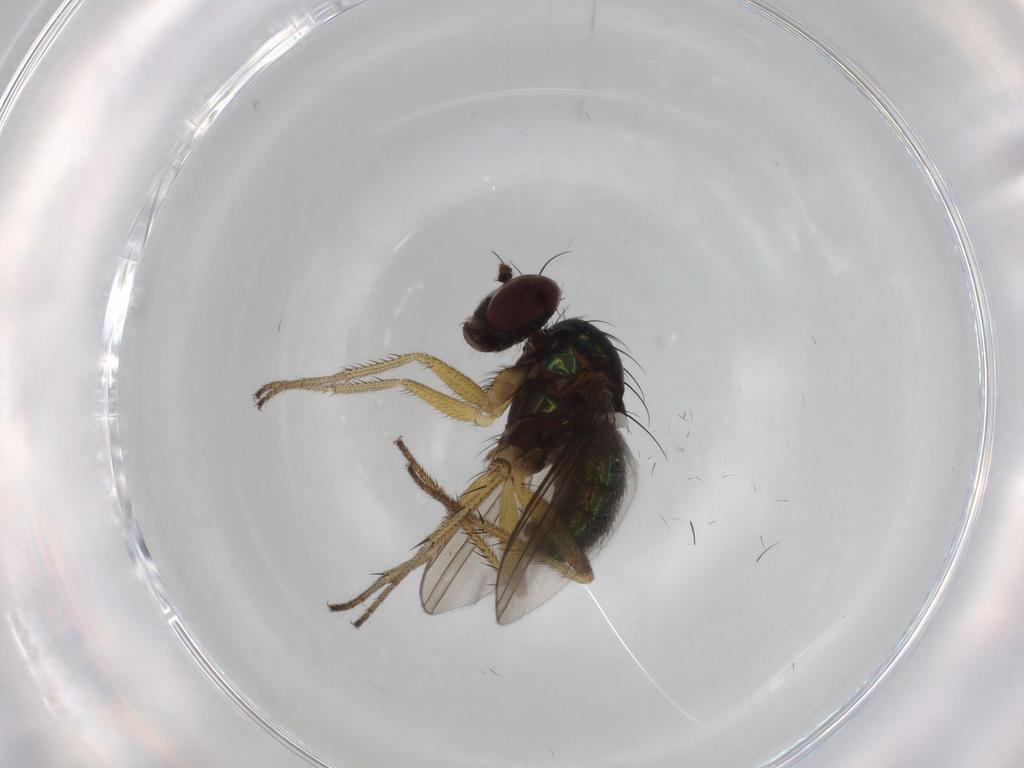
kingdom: Animalia
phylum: Arthropoda
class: Insecta
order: Diptera
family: Dolichopodidae
